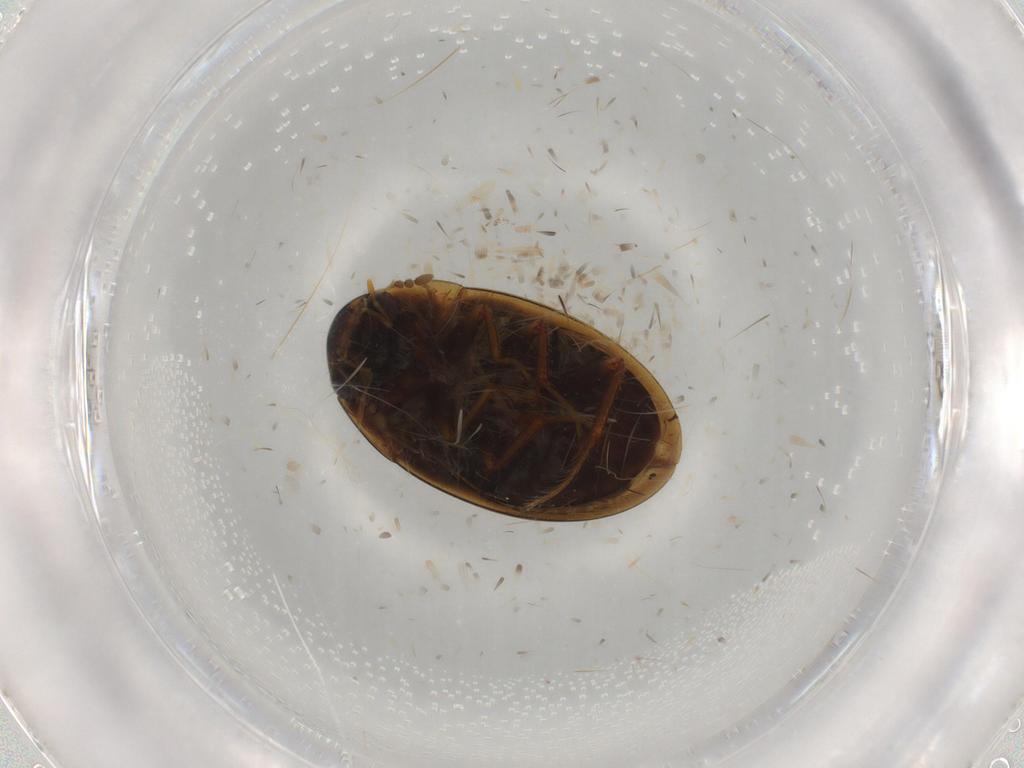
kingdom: Animalia
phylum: Arthropoda
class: Insecta
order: Coleoptera
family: Hydrophilidae
